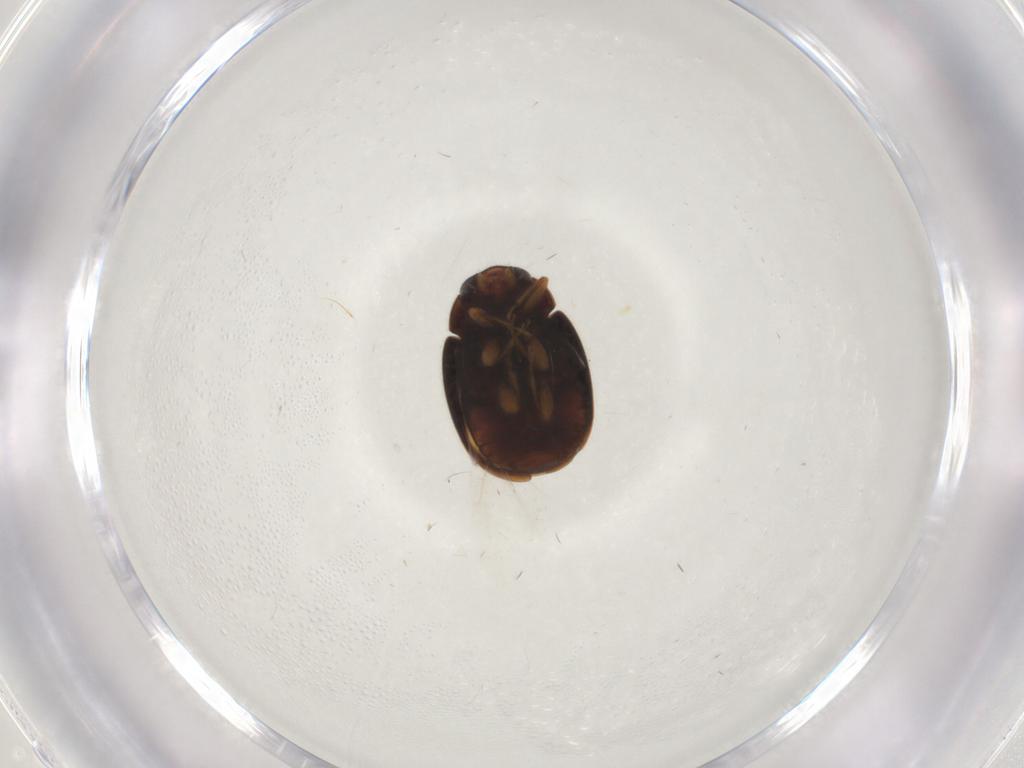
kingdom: Animalia
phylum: Arthropoda
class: Insecta
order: Coleoptera
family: Coccinellidae
